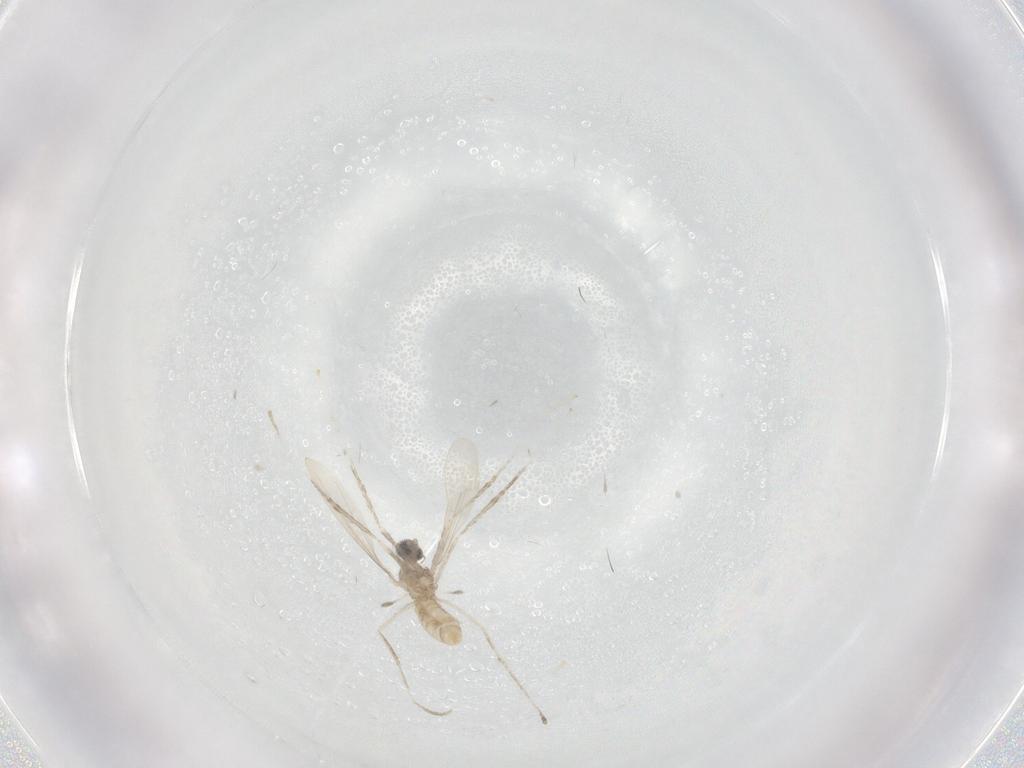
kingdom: Animalia
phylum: Arthropoda
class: Insecta
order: Diptera
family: Cecidomyiidae
